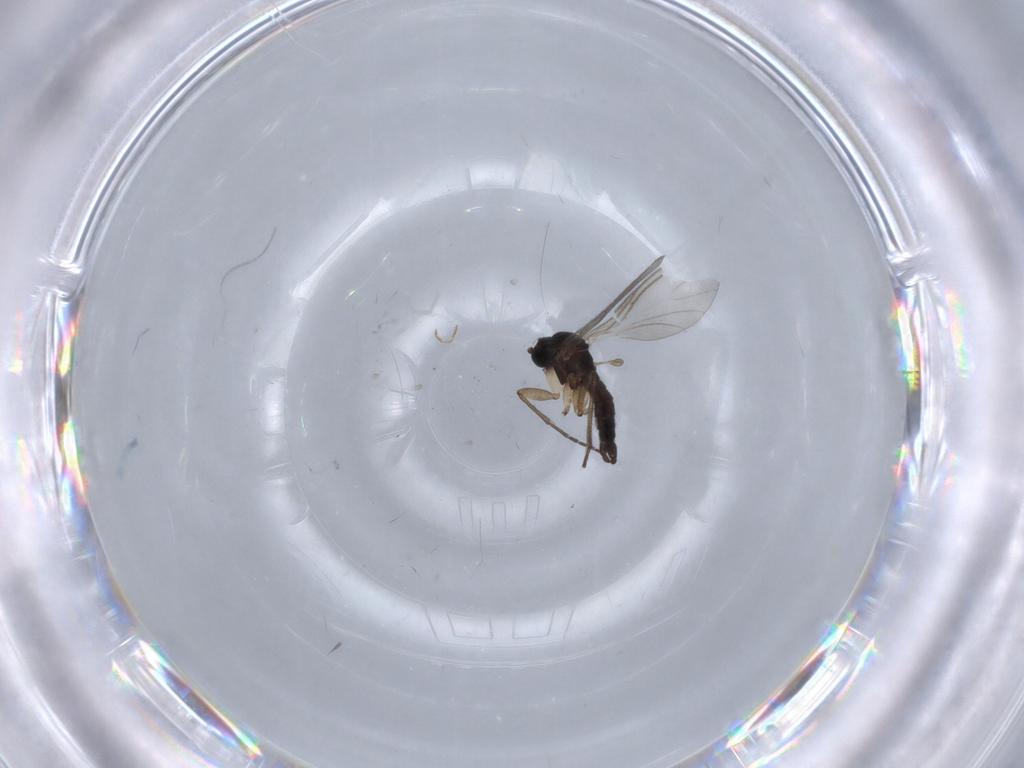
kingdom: Animalia
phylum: Arthropoda
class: Insecta
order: Diptera
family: Sciaridae
